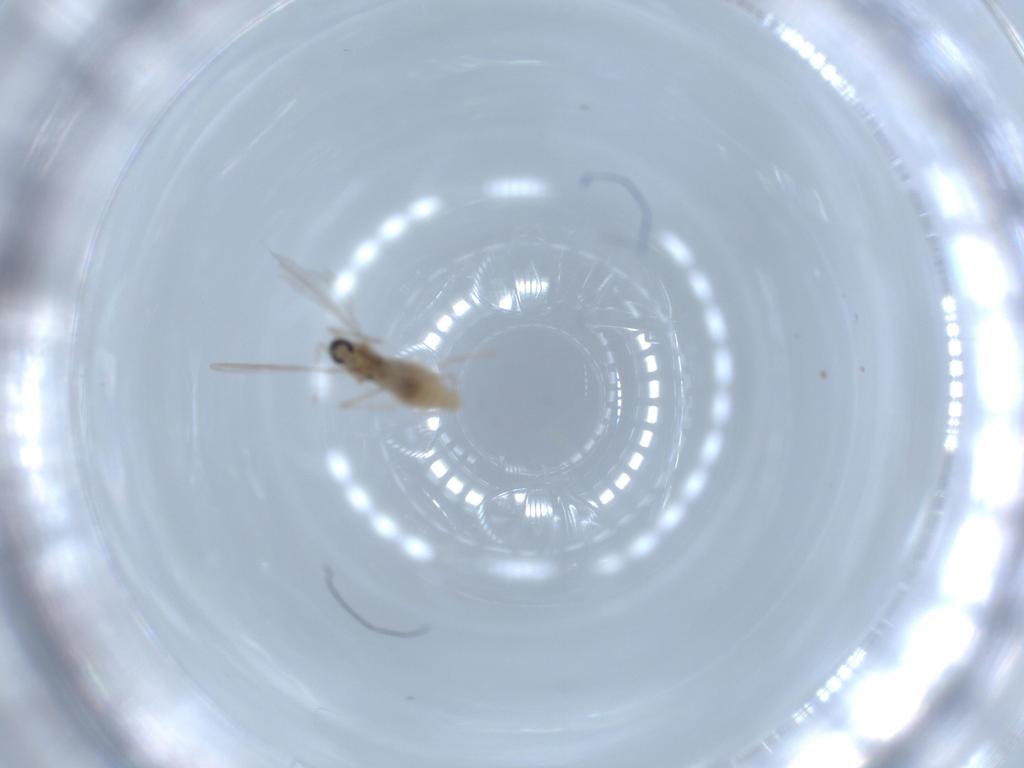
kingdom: Animalia
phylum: Arthropoda
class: Insecta
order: Diptera
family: Cecidomyiidae
